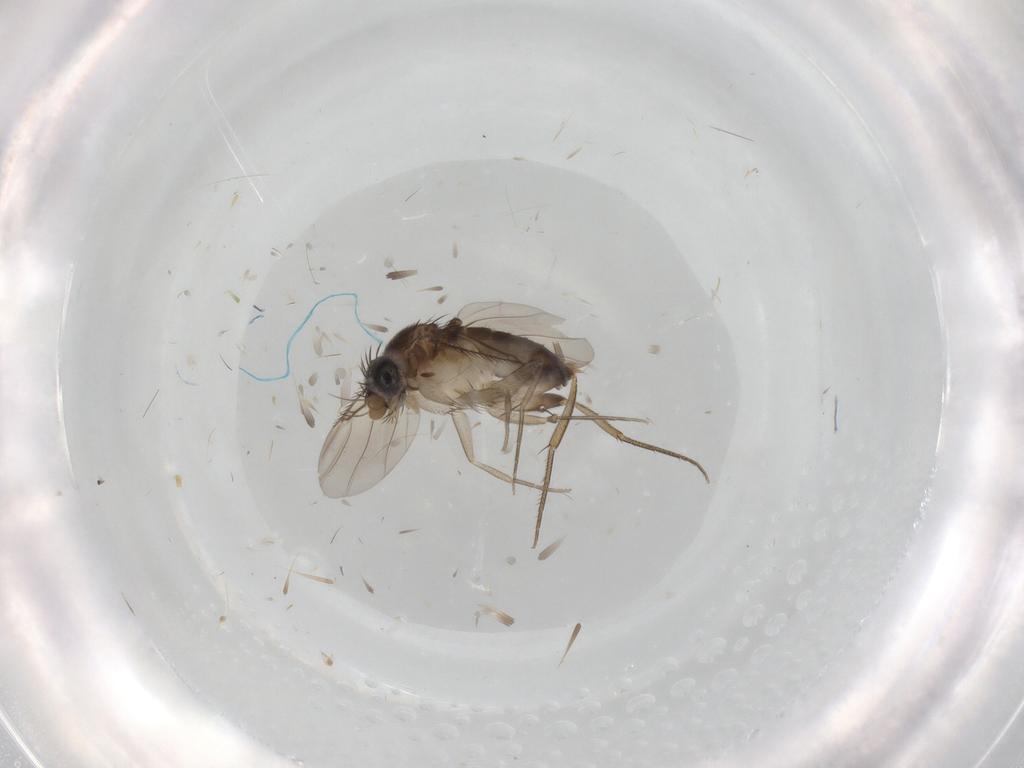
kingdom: Animalia
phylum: Arthropoda
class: Insecta
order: Diptera
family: Phoridae
